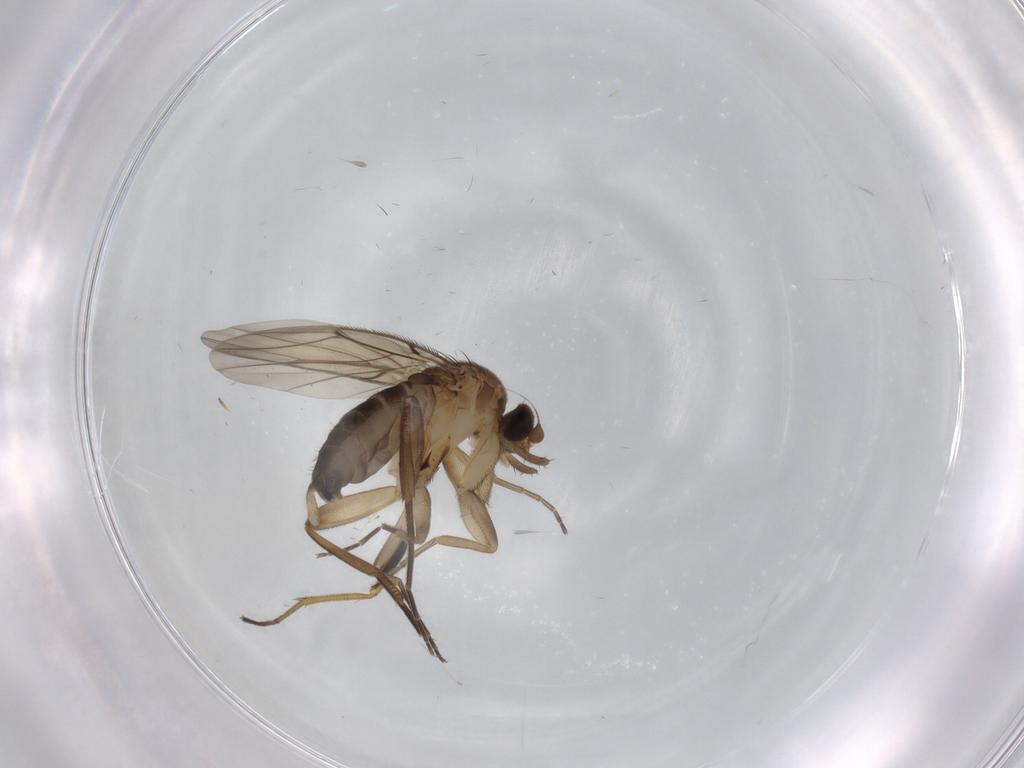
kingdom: Animalia
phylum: Arthropoda
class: Insecta
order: Diptera
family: Phoridae
